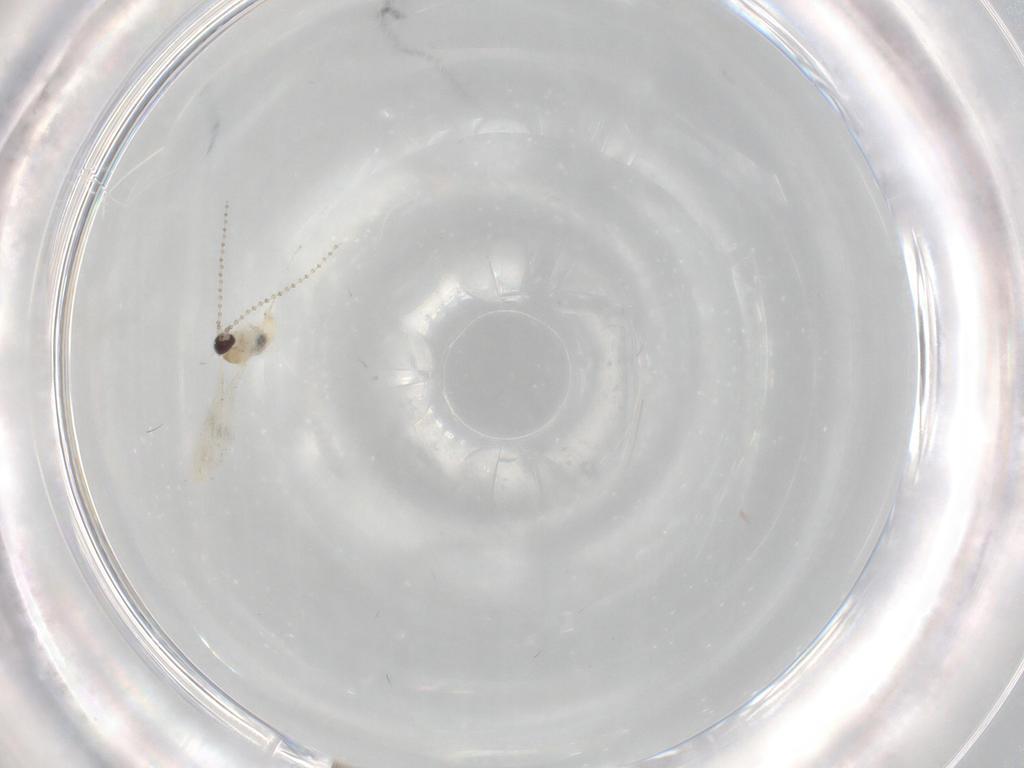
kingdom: Animalia
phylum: Arthropoda
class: Insecta
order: Diptera
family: Cecidomyiidae
